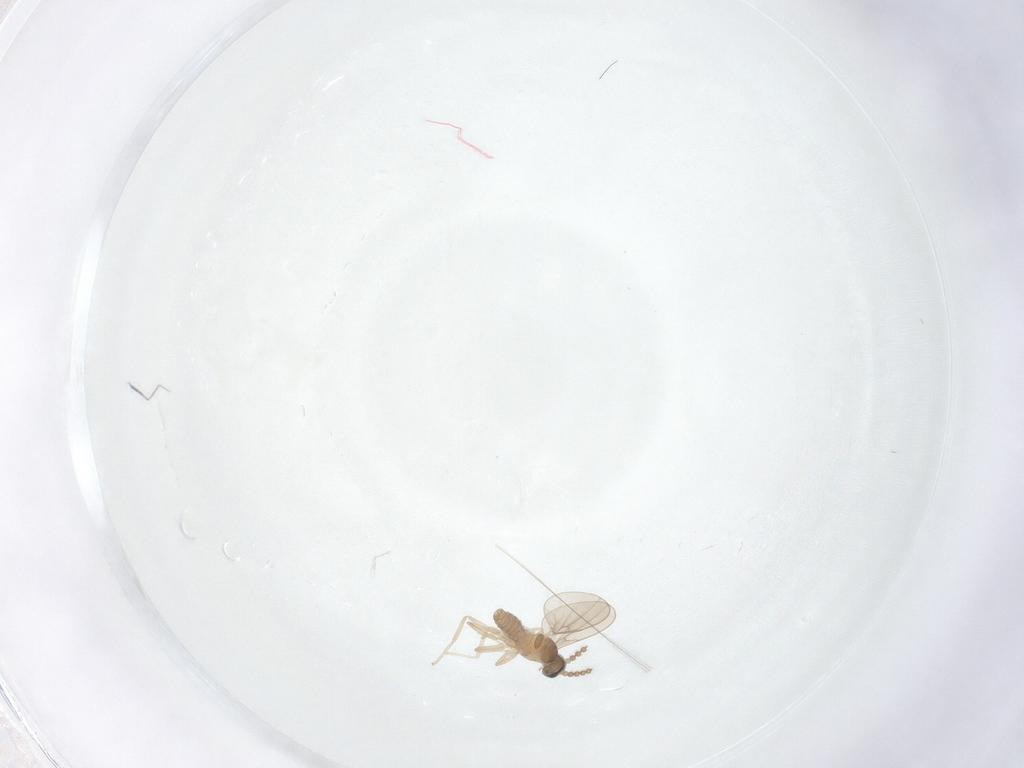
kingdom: Animalia
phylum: Arthropoda
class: Insecta
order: Diptera
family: Cecidomyiidae
